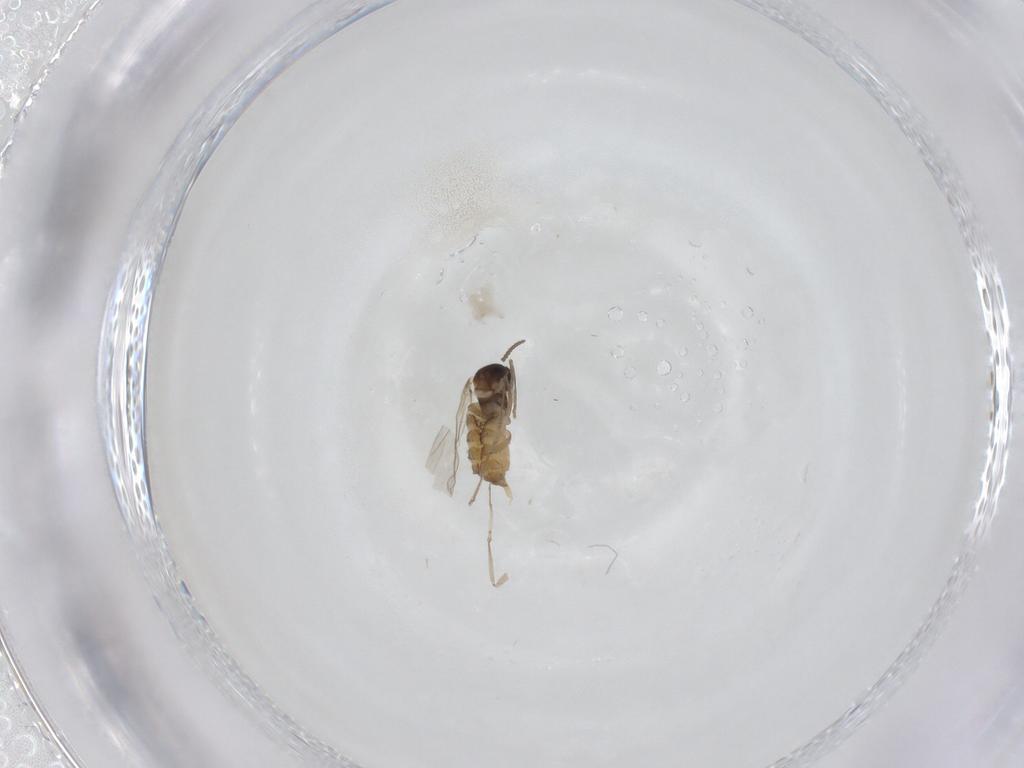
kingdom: Animalia
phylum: Arthropoda
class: Insecta
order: Diptera
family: Cecidomyiidae
